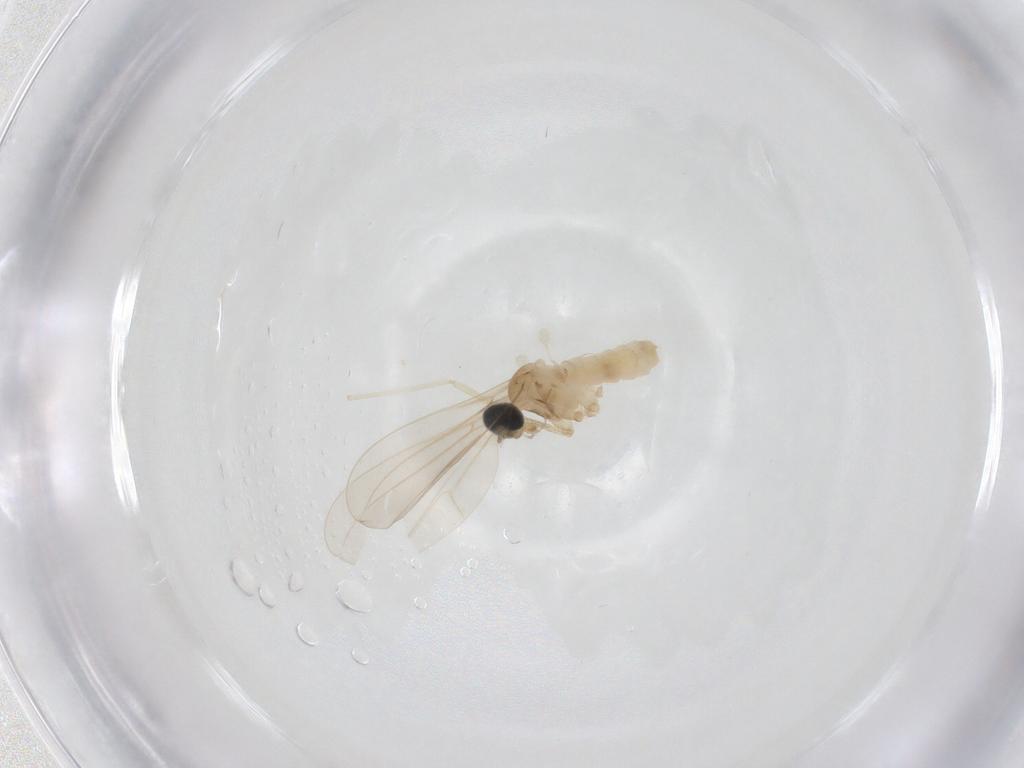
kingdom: Animalia
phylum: Arthropoda
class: Insecta
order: Diptera
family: Cecidomyiidae
